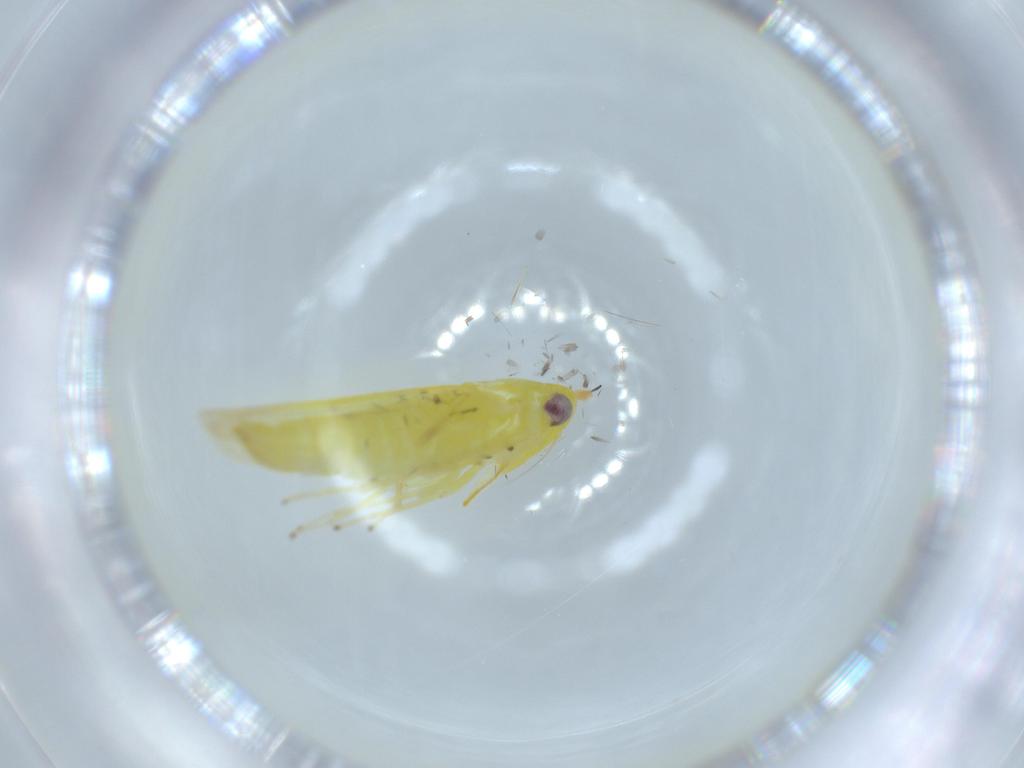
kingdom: Animalia
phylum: Arthropoda
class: Insecta
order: Hemiptera
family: Cicadellidae
